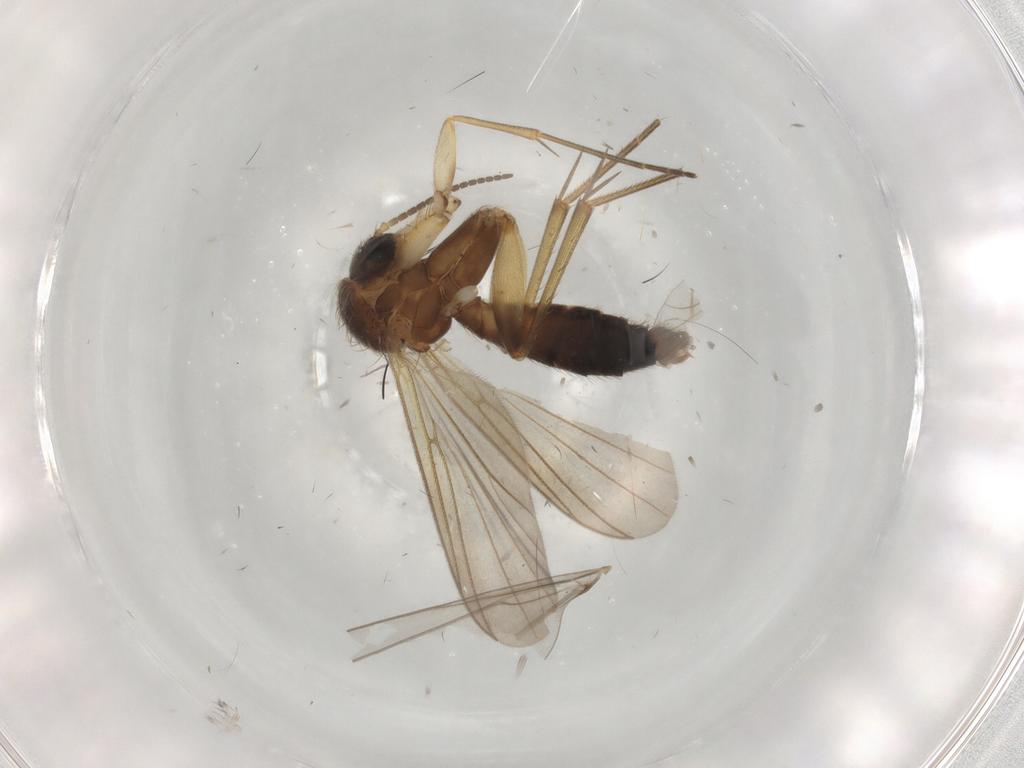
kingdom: Animalia
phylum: Arthropoda
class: Insecta
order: Diptera
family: Mycetophilidae
